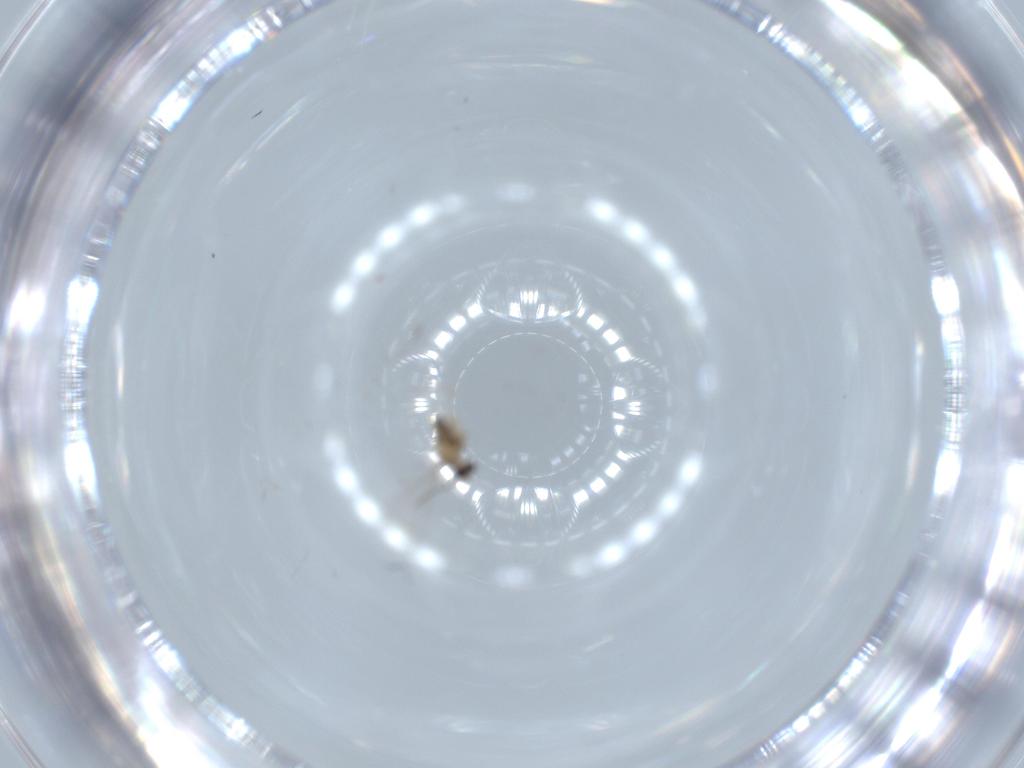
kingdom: Animalia
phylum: Arthropoda
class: Insecta
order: Diptera
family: Cecidomyiidae
